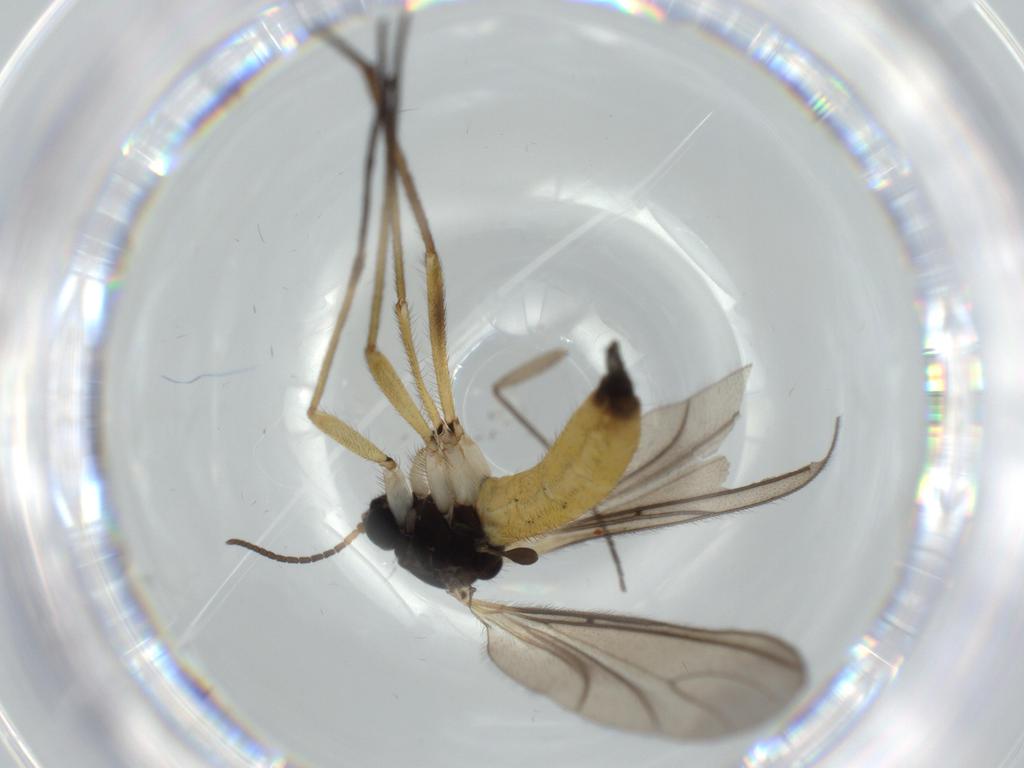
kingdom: Animalia
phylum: Arthropoda
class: Insecta
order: Diptera
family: Sciaridae
